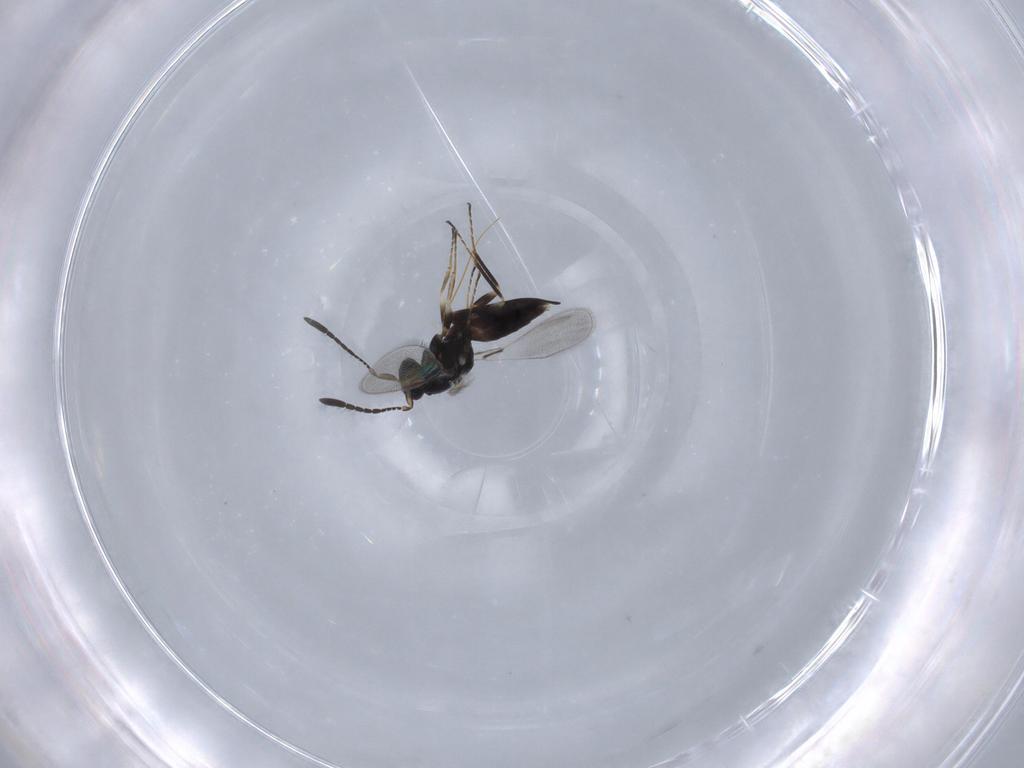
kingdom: Animalia
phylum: Arthropoda
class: Insecta
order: Hymenoptera
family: Mymaridae
